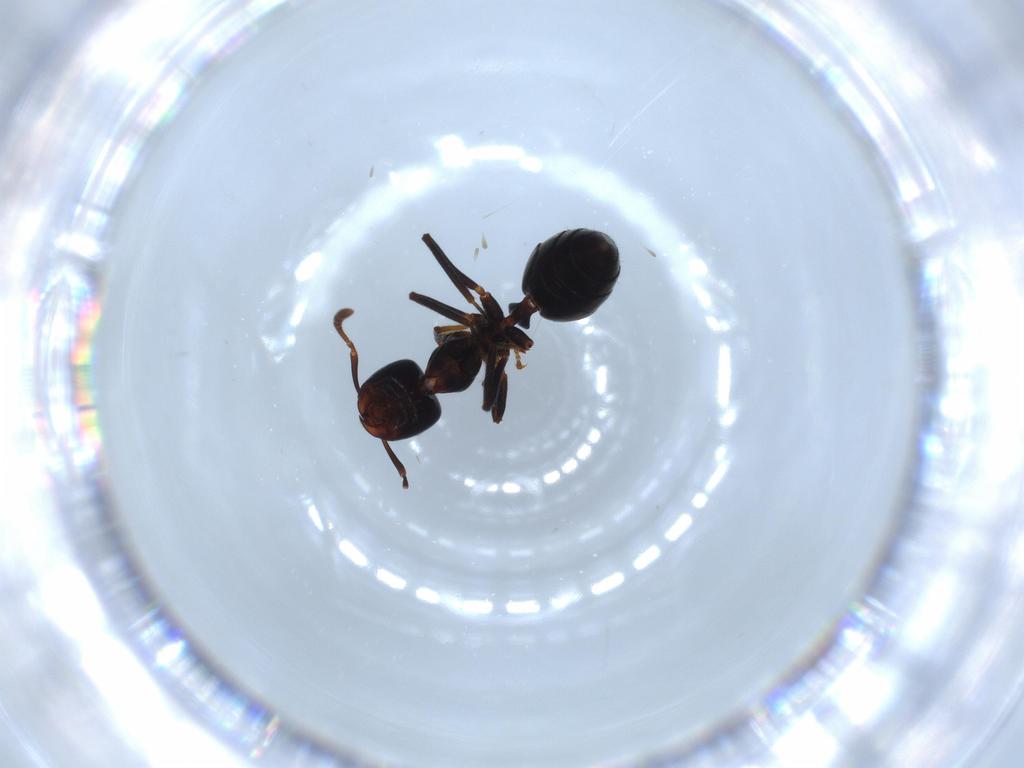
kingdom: Animalia
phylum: Arthropoda
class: Insecta
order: Hymenoptera
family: Formicidae
